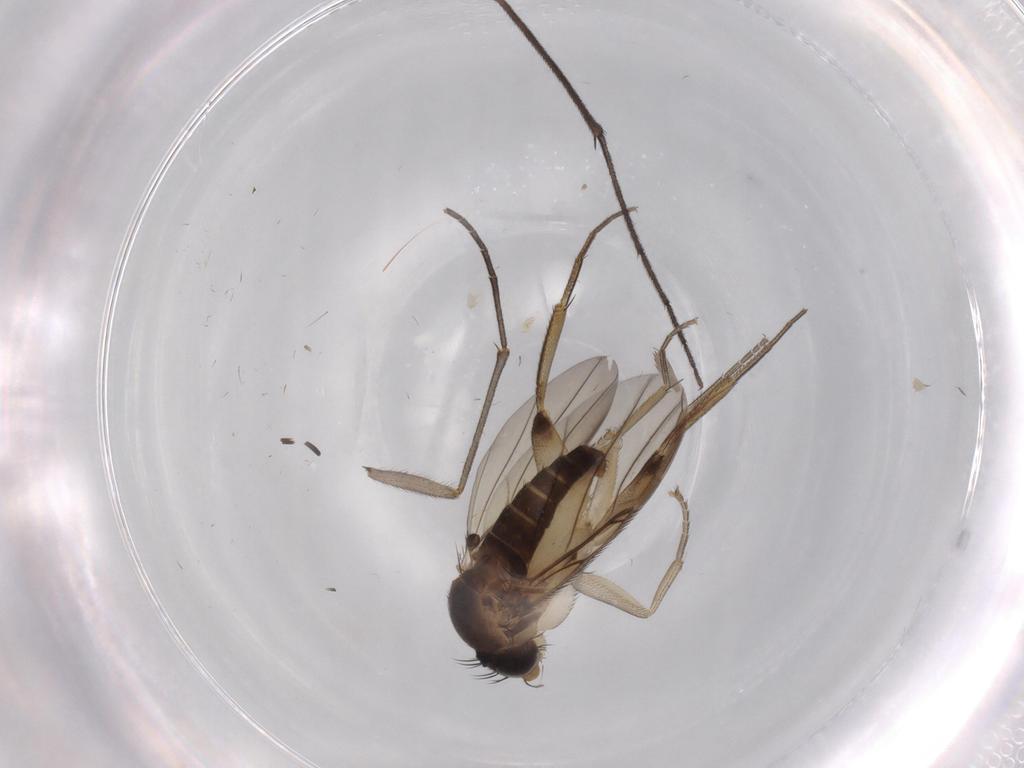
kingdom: Animalia
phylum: Arthropoda
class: Insecta
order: Diptera
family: Phoridae
